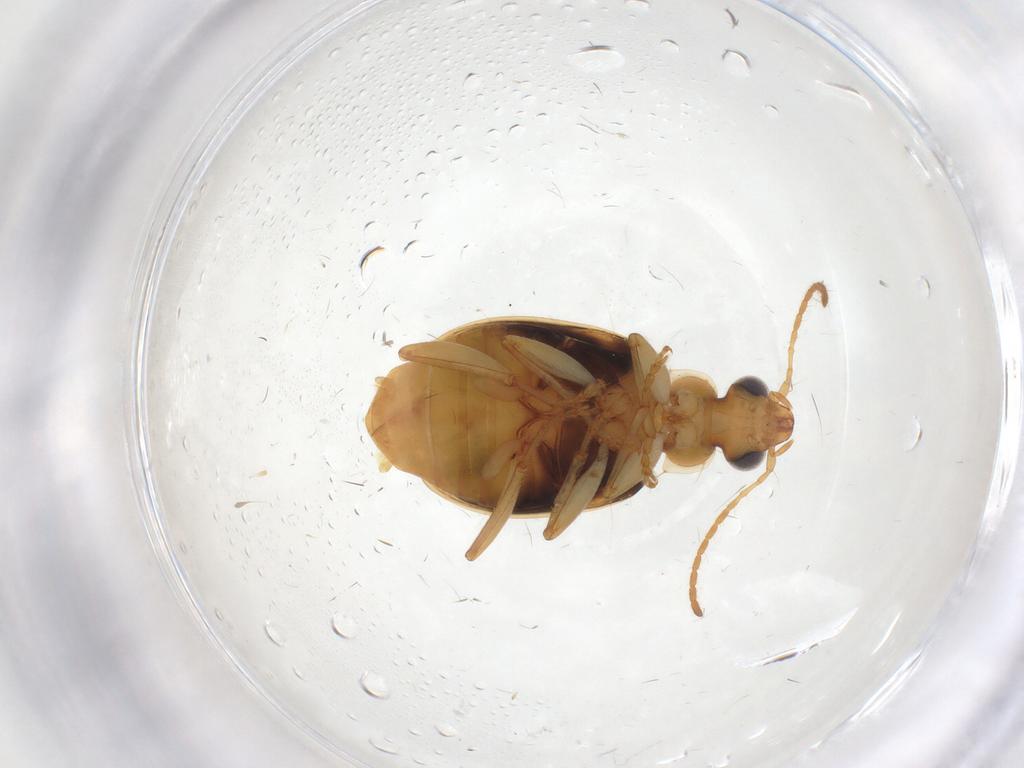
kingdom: Animalia
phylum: Arthropoda
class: Insecta
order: Coleoptera
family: Carabidae
